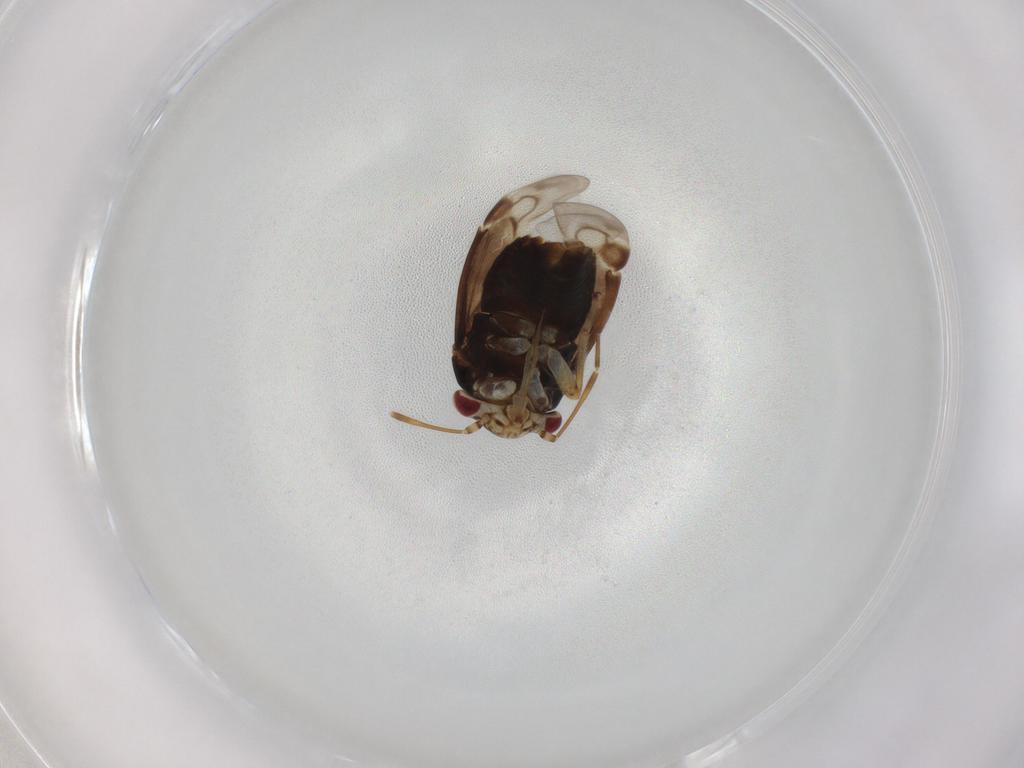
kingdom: Animalia
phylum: Arthropoda
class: Insecta
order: Hemiptera
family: Miridae
